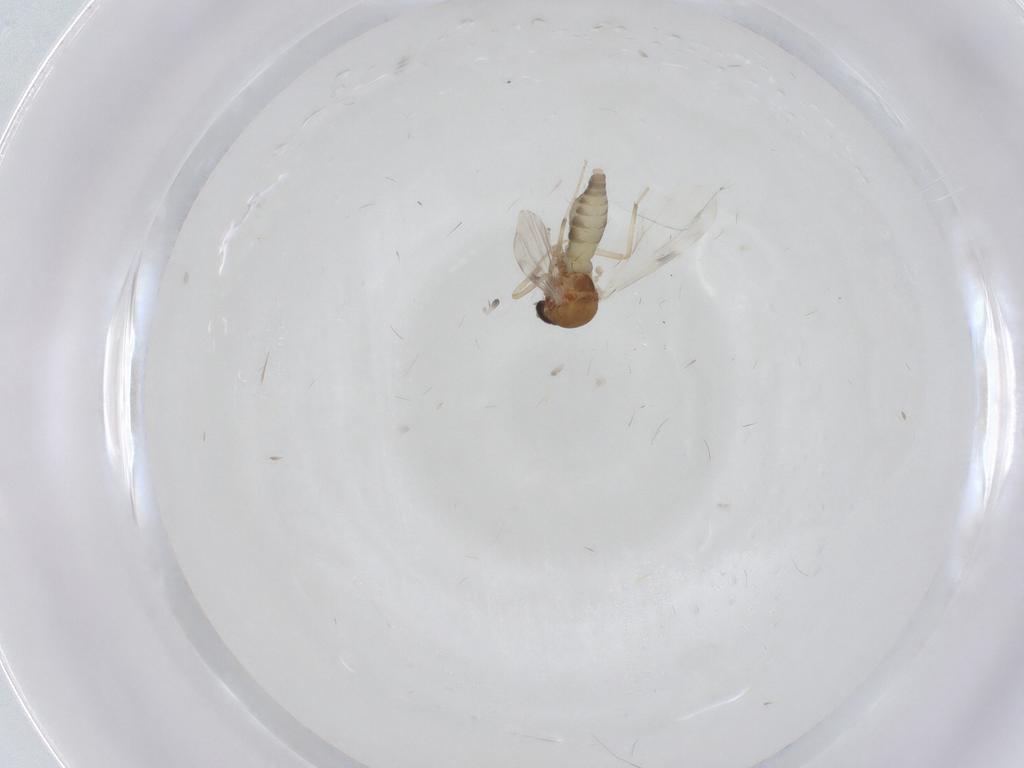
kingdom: Animalia
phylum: Arthropoda
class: Insecta
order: Diptera
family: Ceratopogonidae
